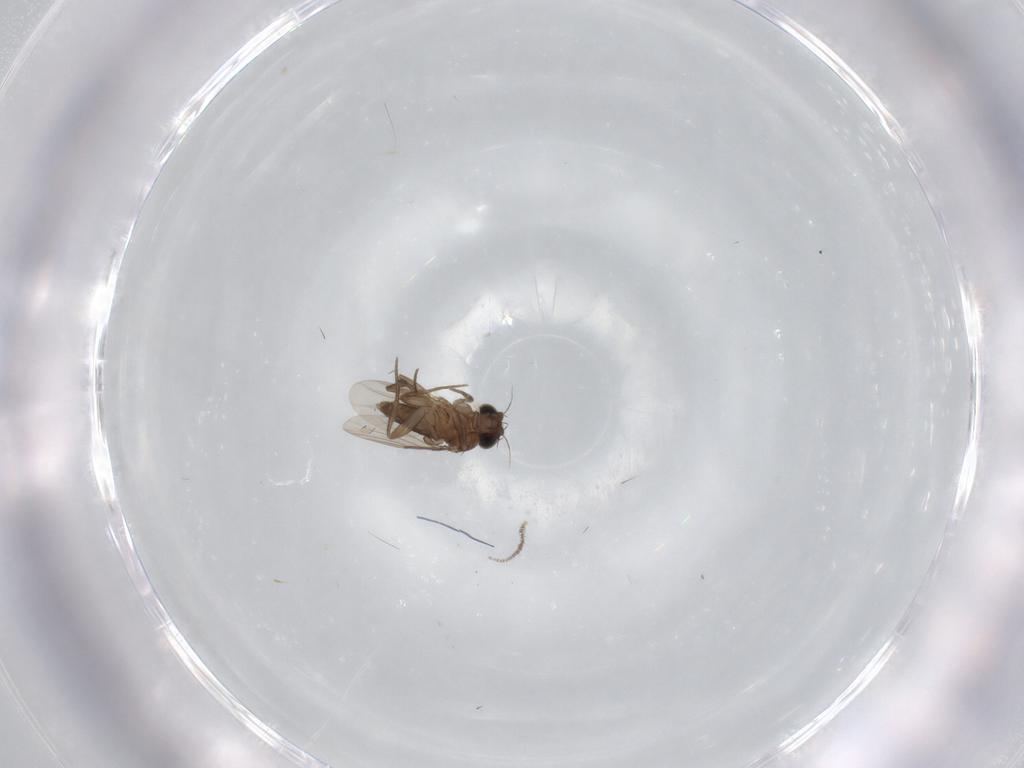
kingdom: Animalia
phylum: Arthropoda
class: Insecta
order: Diptera
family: Phoridae
